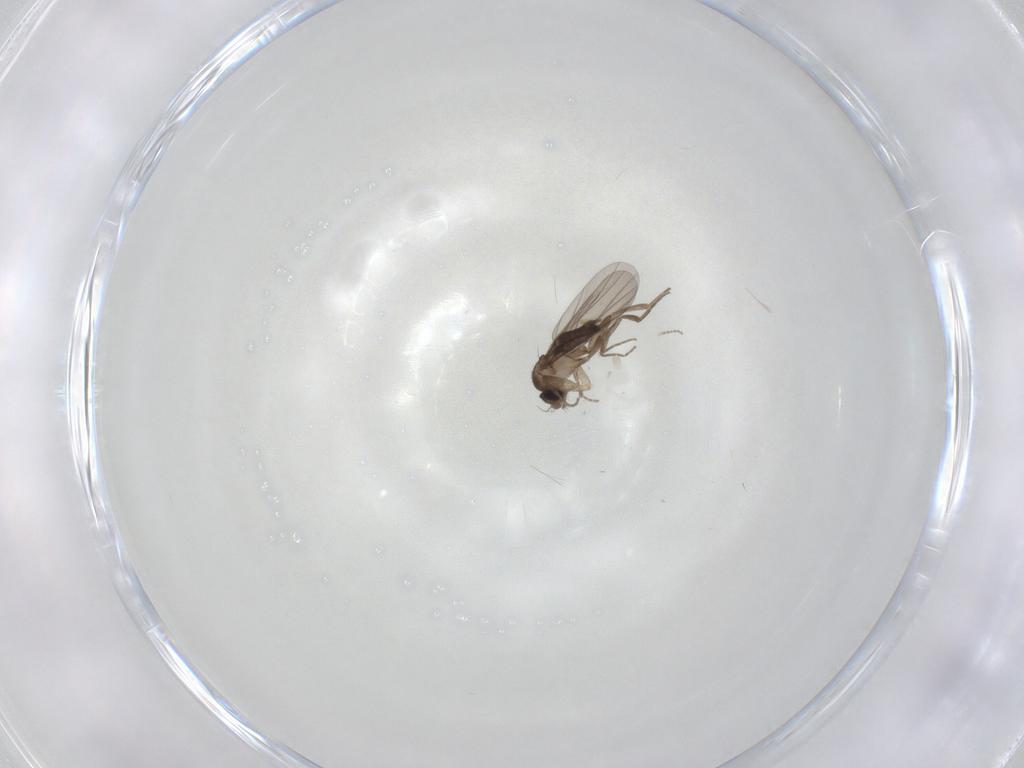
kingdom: Animalia
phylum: Arthropoda
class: Insecta
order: Diptera
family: Phoridae
